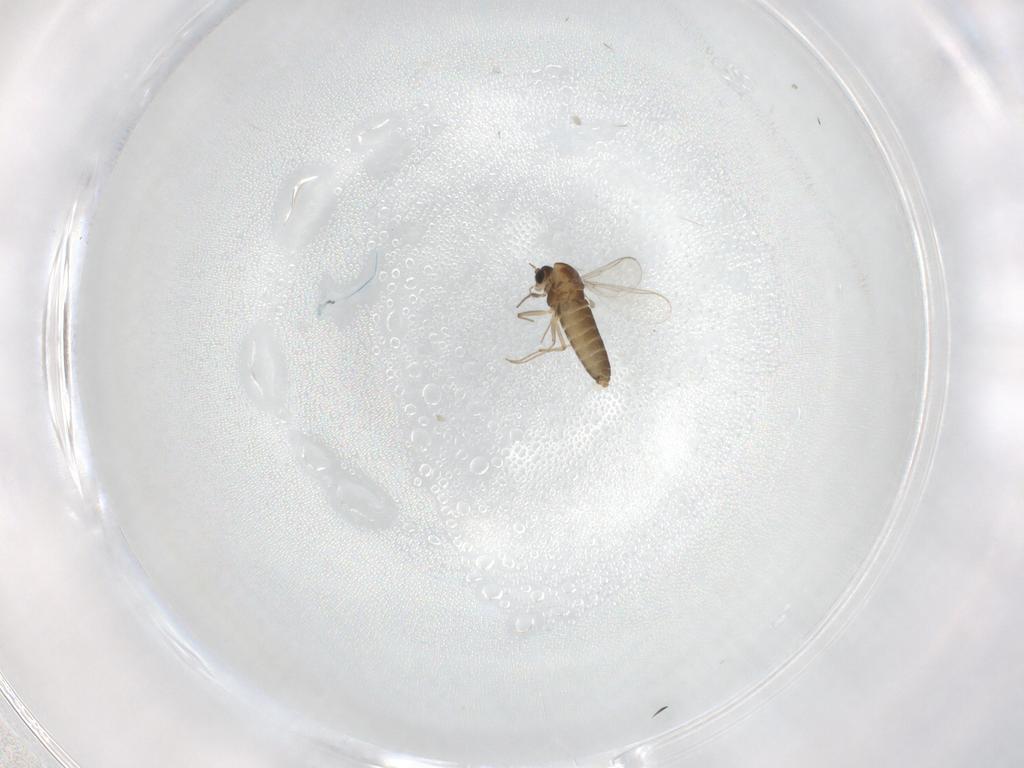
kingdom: Animalia
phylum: Arthropoda
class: Insecta
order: Diptera
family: Chironomidae
